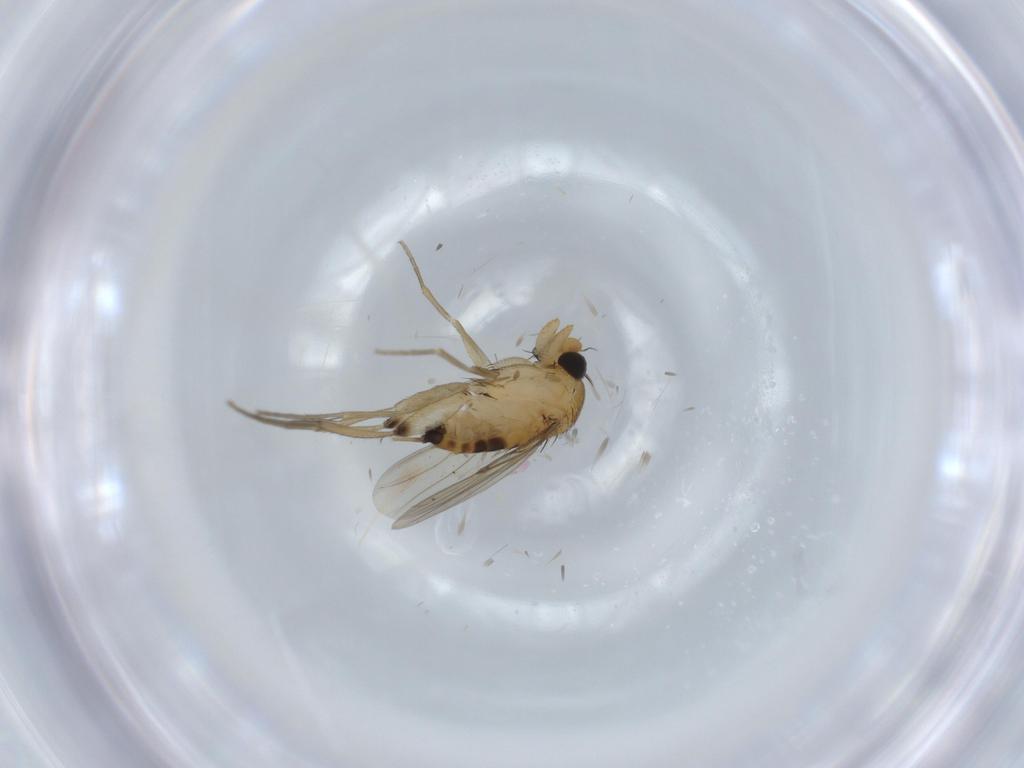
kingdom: Animalia
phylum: Arthropoda
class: Insecta
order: Diptera
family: Phoridae
